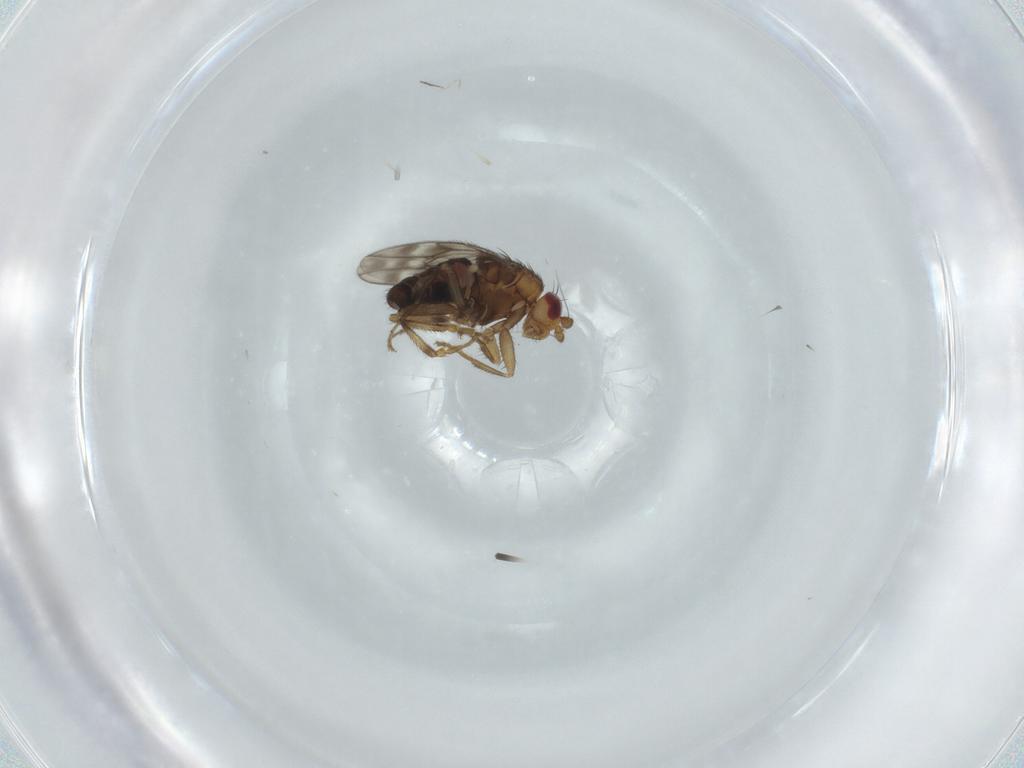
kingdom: Animalia
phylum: Arthropoda
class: Insecta
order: Diptera
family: Sphaeroceridae
